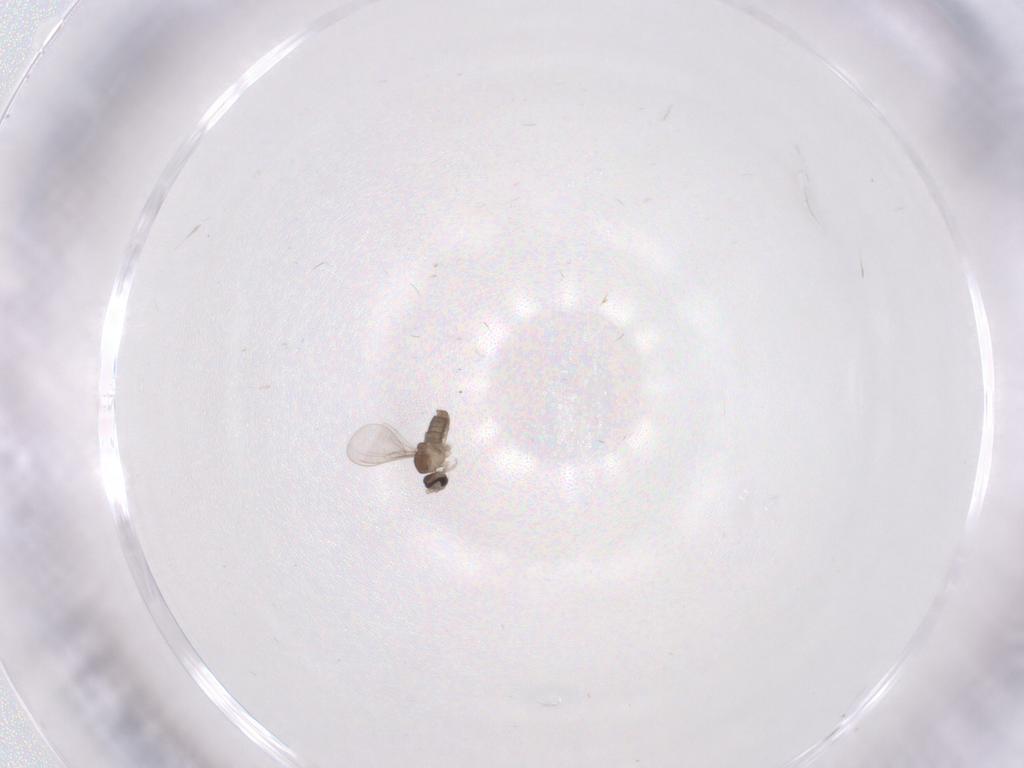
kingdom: Animalia
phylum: Arthropoda
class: Insecta
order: Diptera
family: Cecidomyiidae
